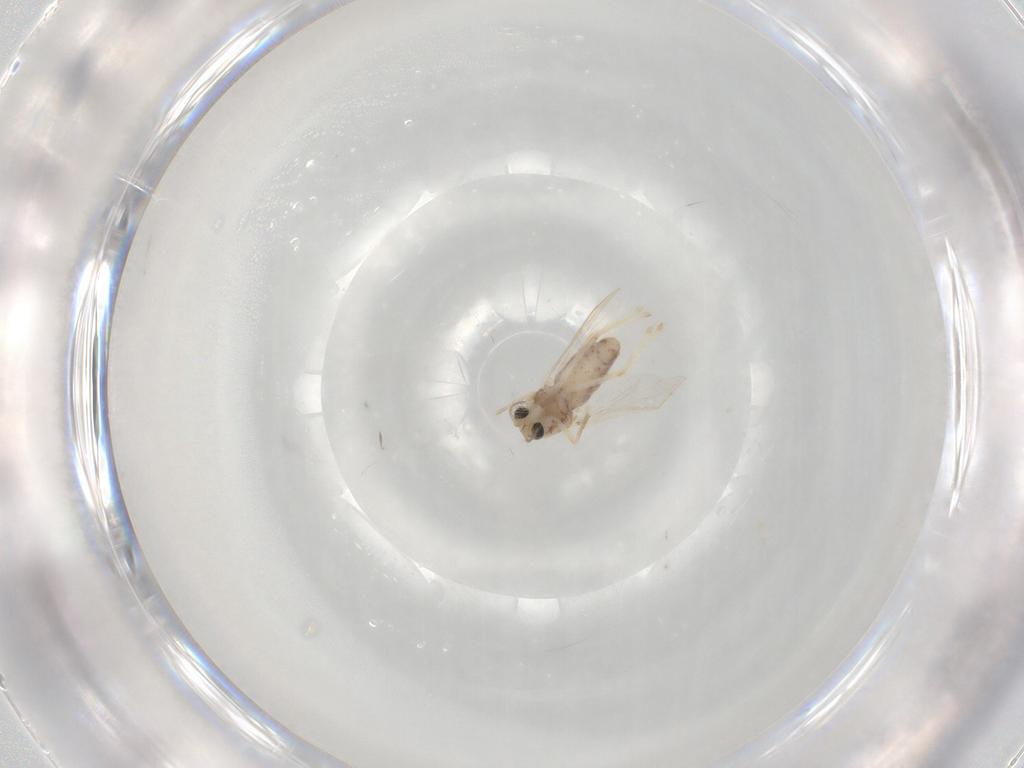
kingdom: Animalia
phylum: Arthropoda
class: Insecta
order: Diptera
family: Chironomidae
